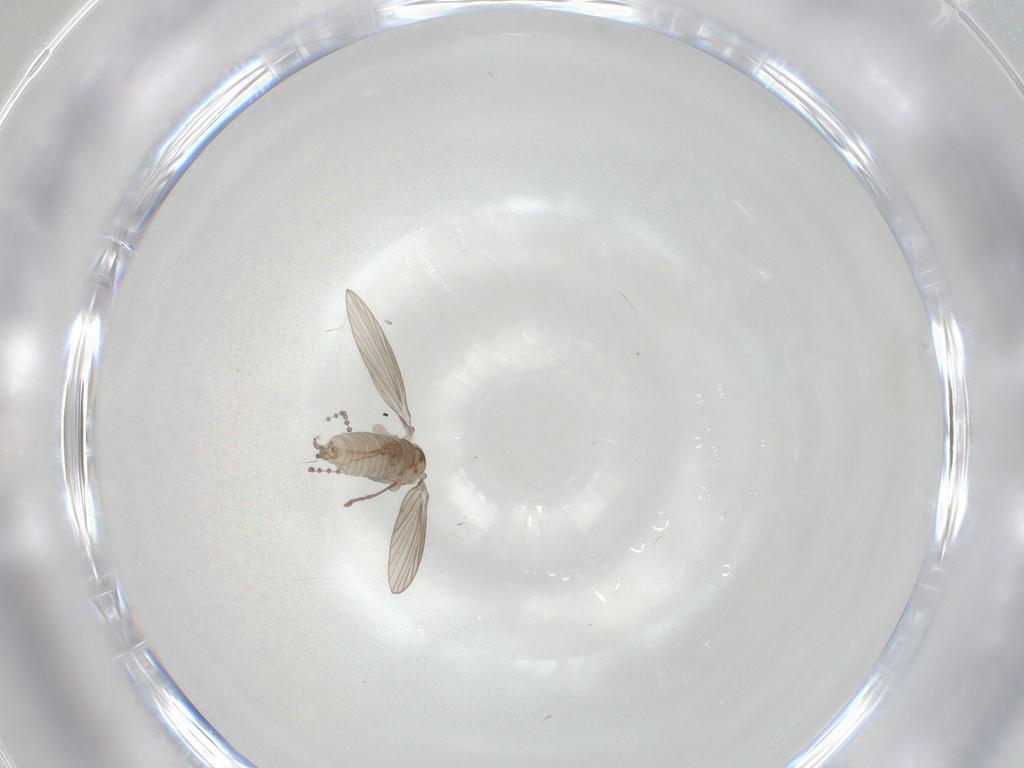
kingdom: Animalia
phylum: Arthropoda
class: Insecta
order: Diptera
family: Psychodidae
